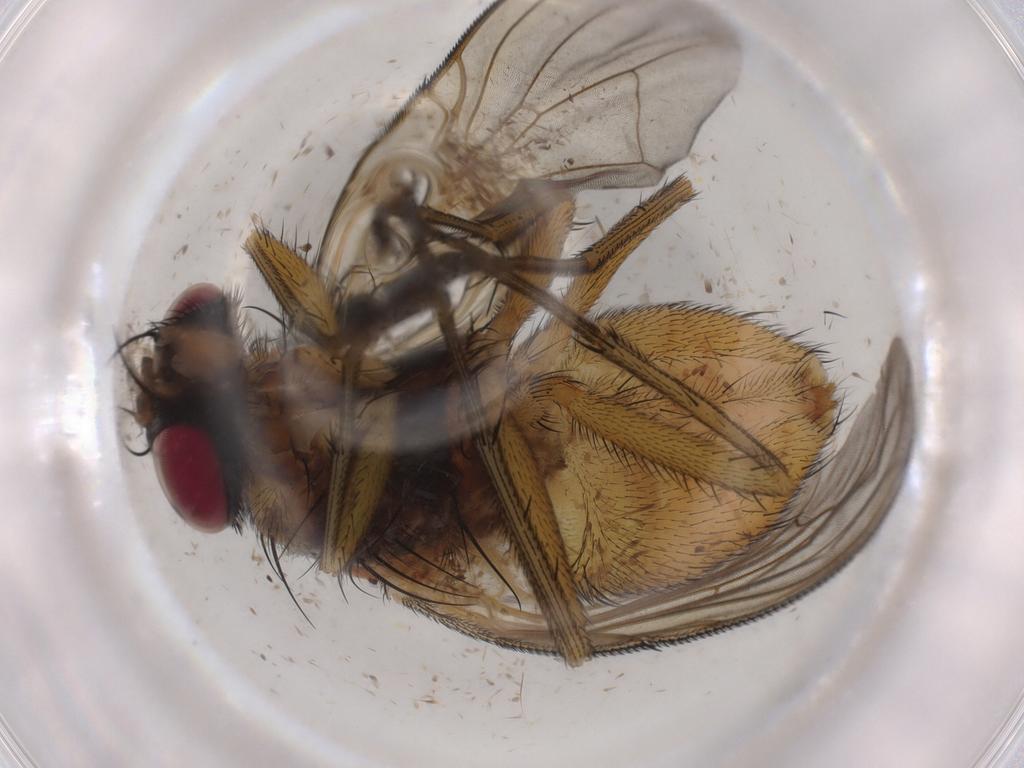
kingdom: Animalia
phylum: Arthropoda
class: Insecta
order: Diptera
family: Muscidae
